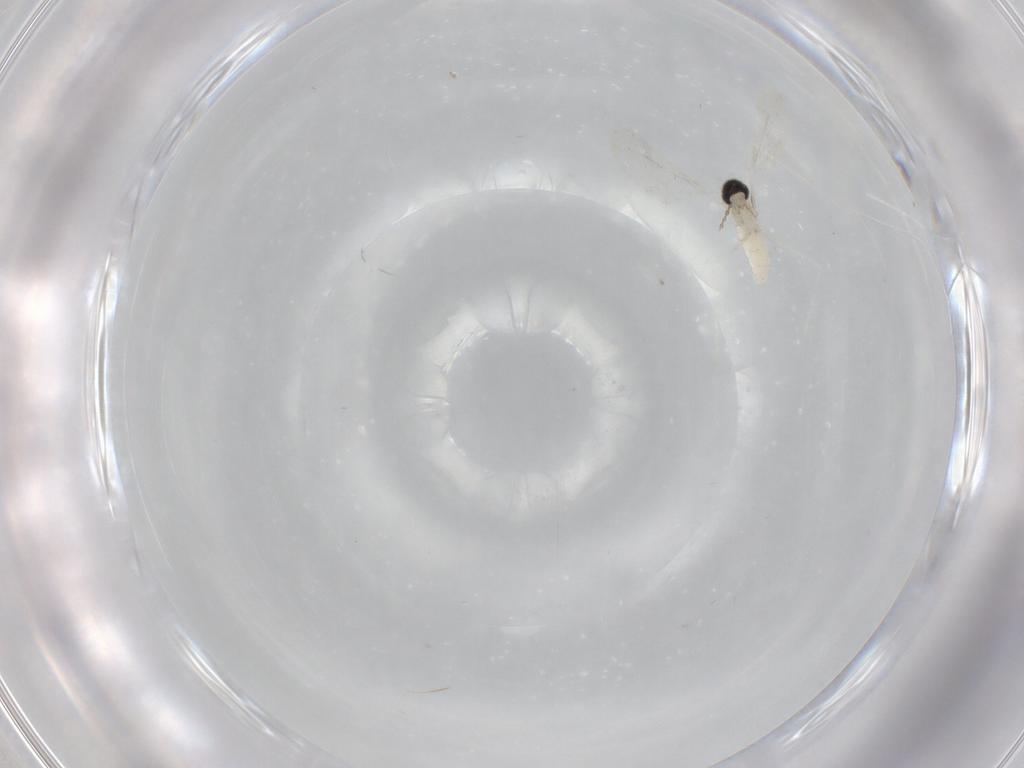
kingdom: Animalia
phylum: Arthropoda
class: Insecta
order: Diptera
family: Cecidomyiidae
